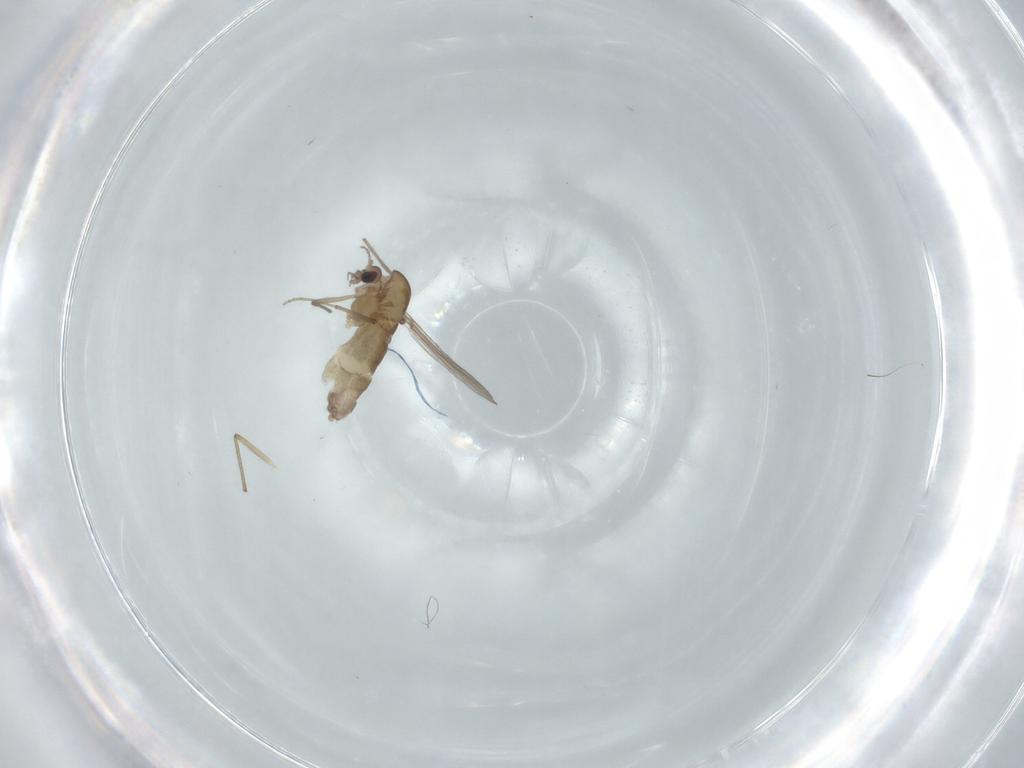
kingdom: Animalia
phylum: Arthropoda
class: Insecta
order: Diptera
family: Chironomidae
